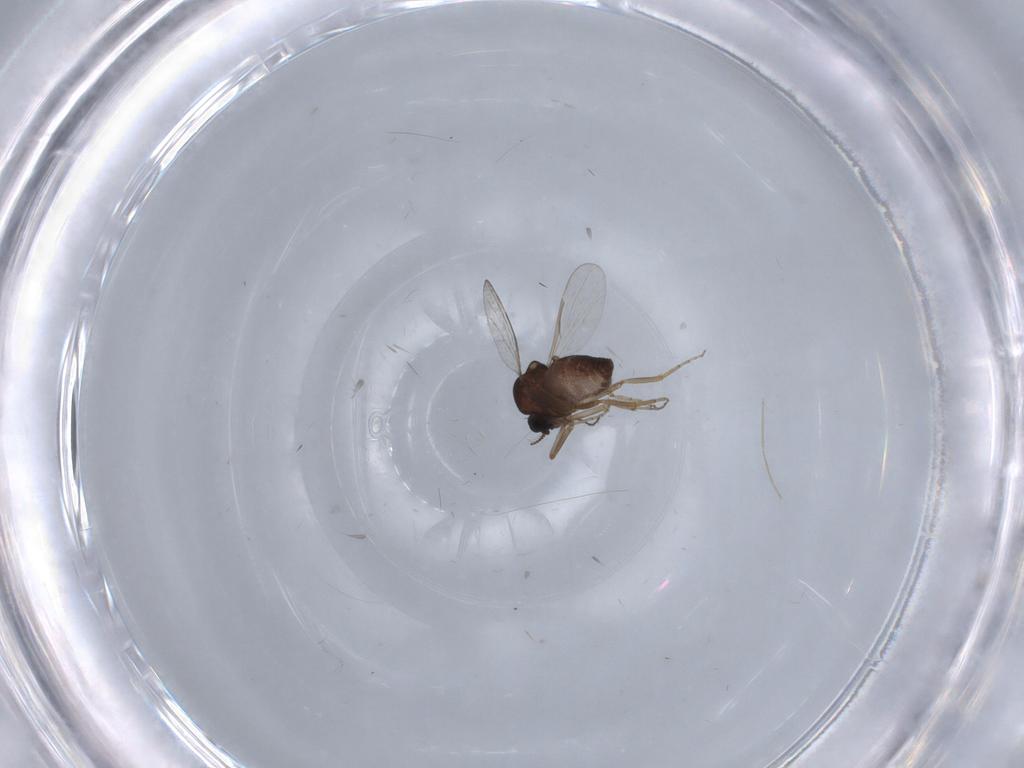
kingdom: Animalia
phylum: Arthropoda
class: Insecta
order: Diptera
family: Ceratopogonidae
